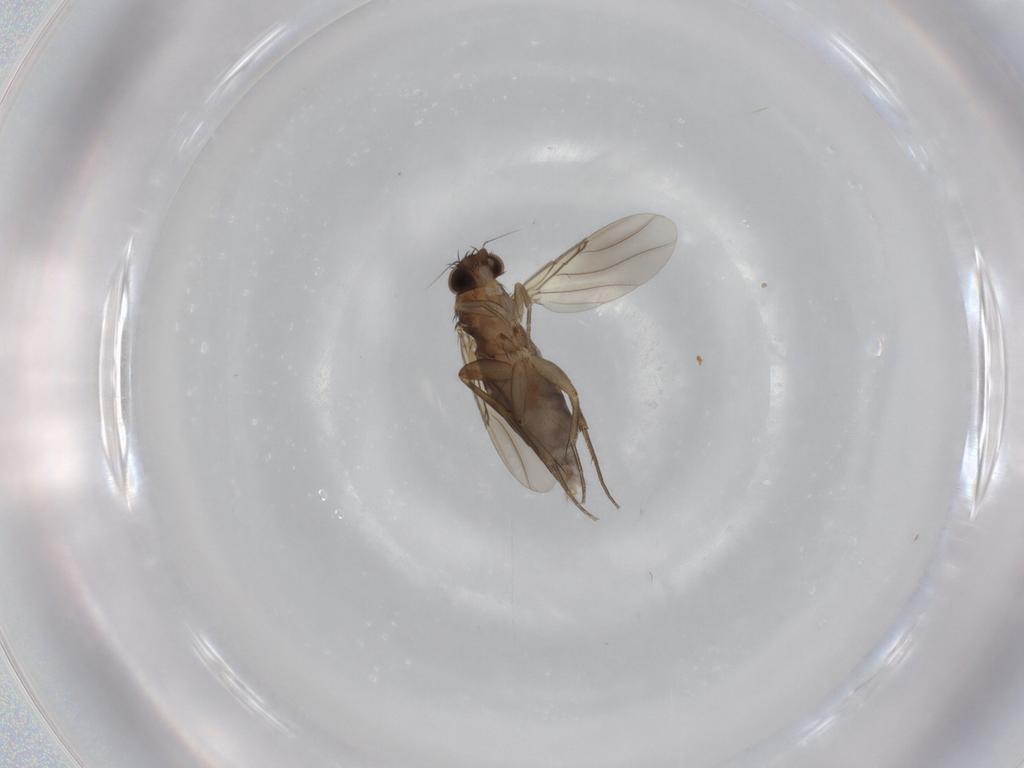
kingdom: Animalia
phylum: Arthropoda
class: Insecta
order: Diptera
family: Phoridae
